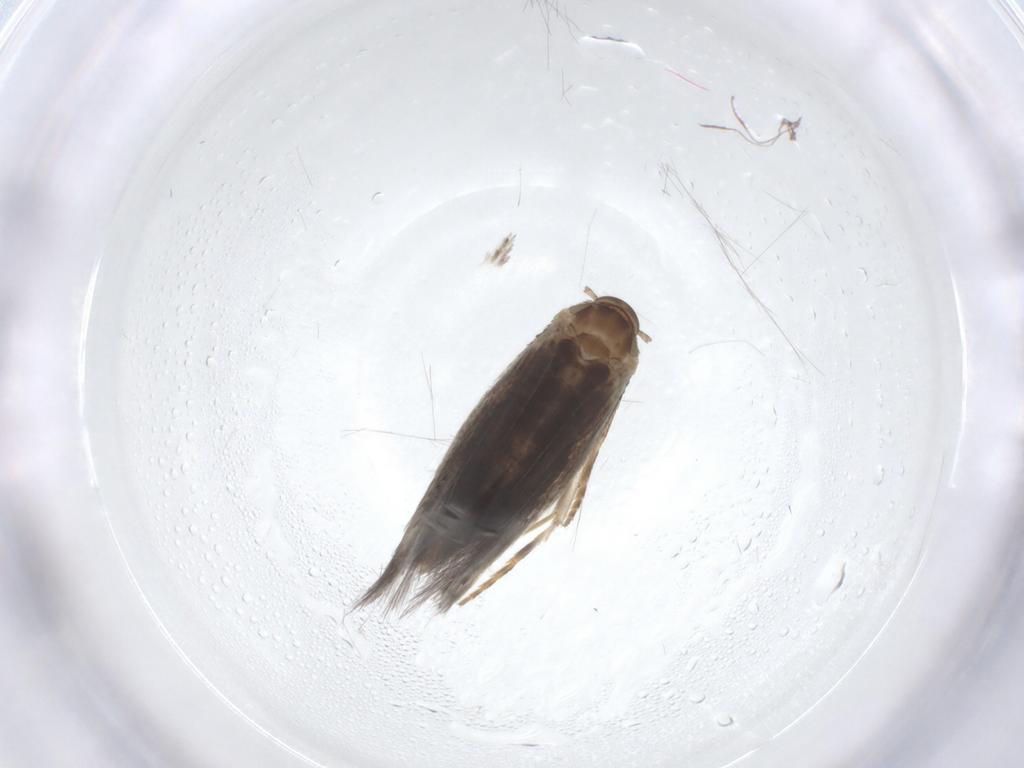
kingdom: Animalia
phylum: Arthropoda
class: Insecta
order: Lepidoptera
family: Elachistidae
